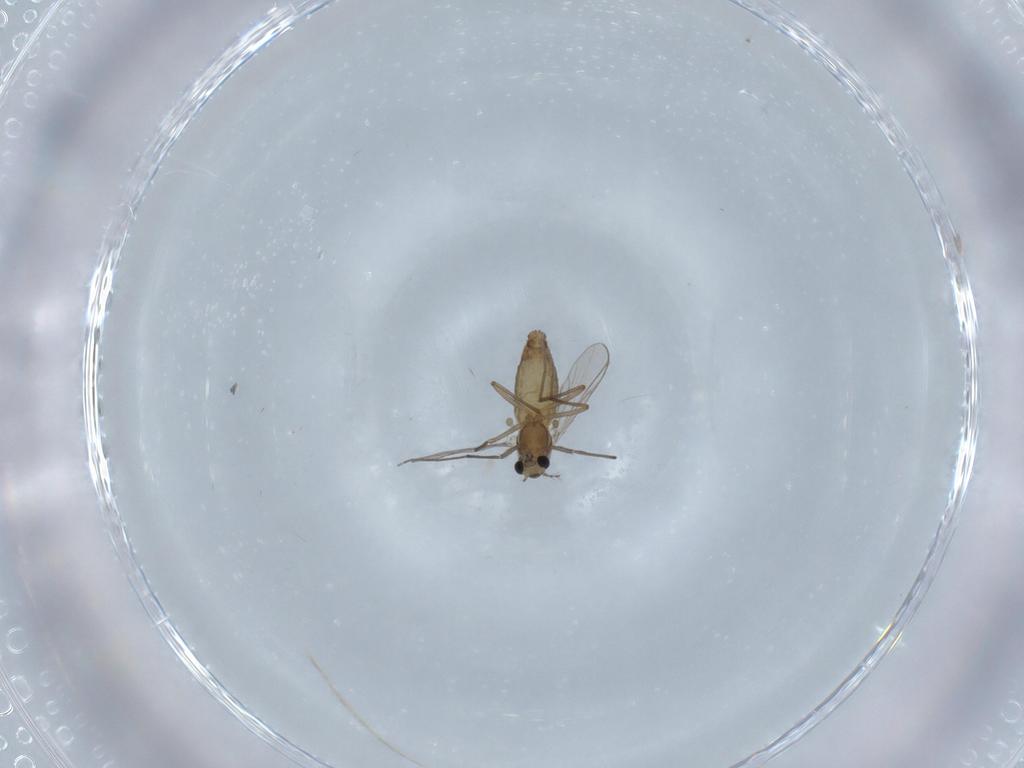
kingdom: Animalia
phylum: Arthropoda
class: Insecta
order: Diptera
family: Chironomidae
